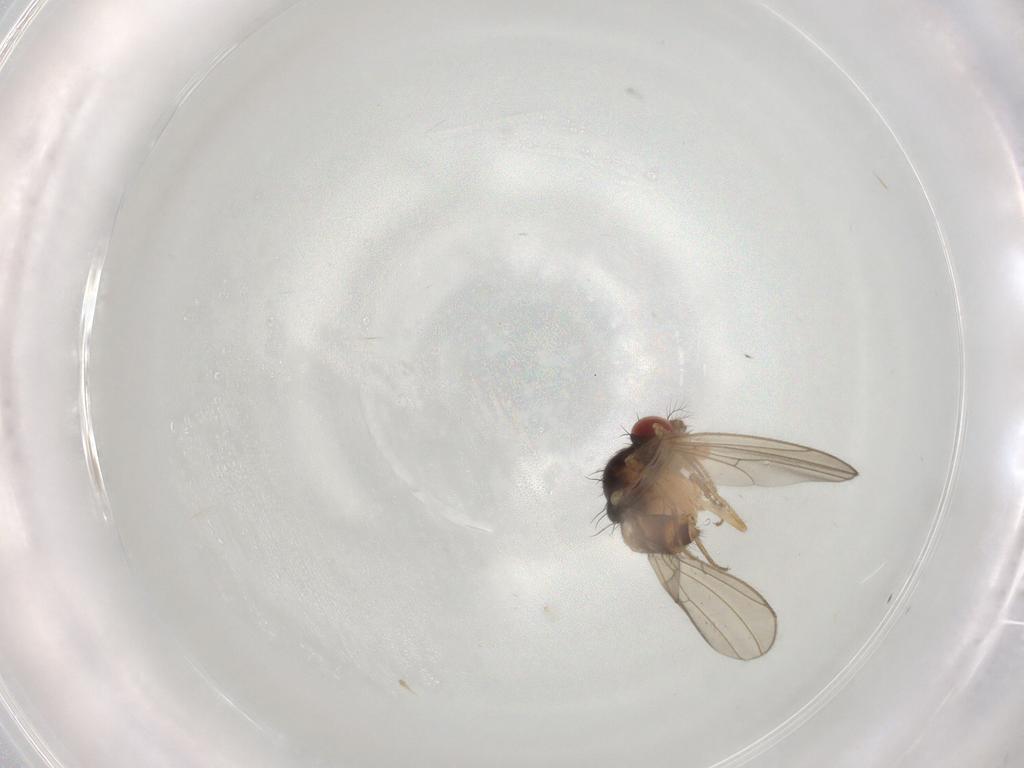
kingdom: Animalia
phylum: Arthropoda
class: Insecta
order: Diptera
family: Drosophilidae
